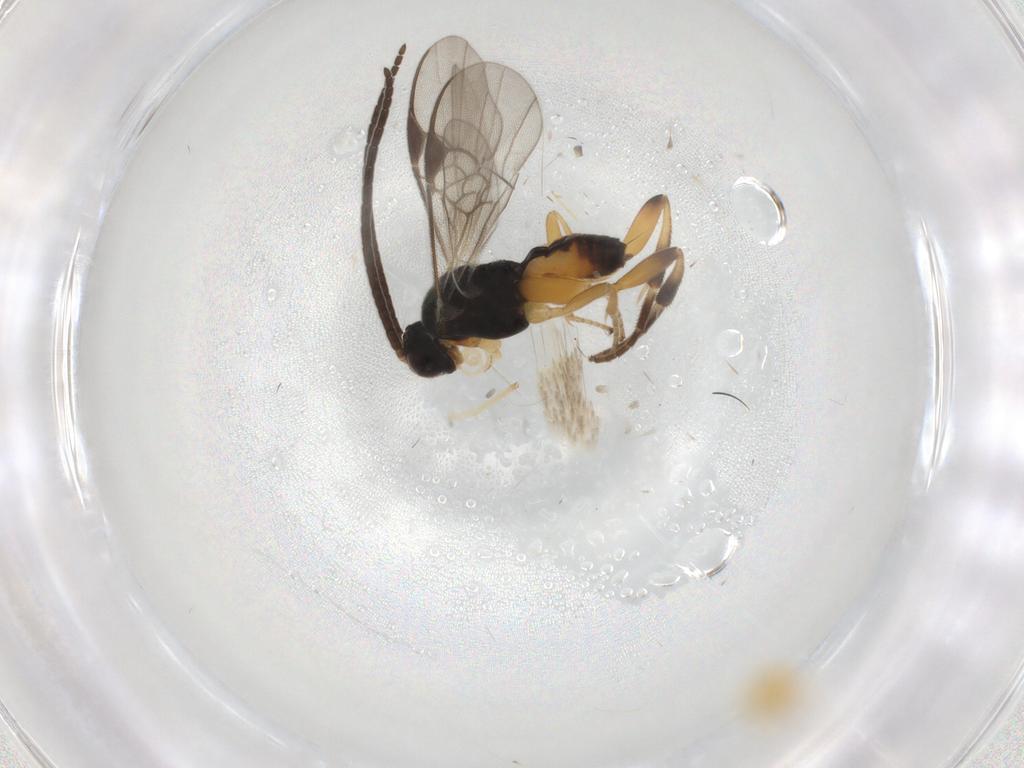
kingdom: Animalia
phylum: Arthropoda
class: Insecta
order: Hymenoptera
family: Braconidae
